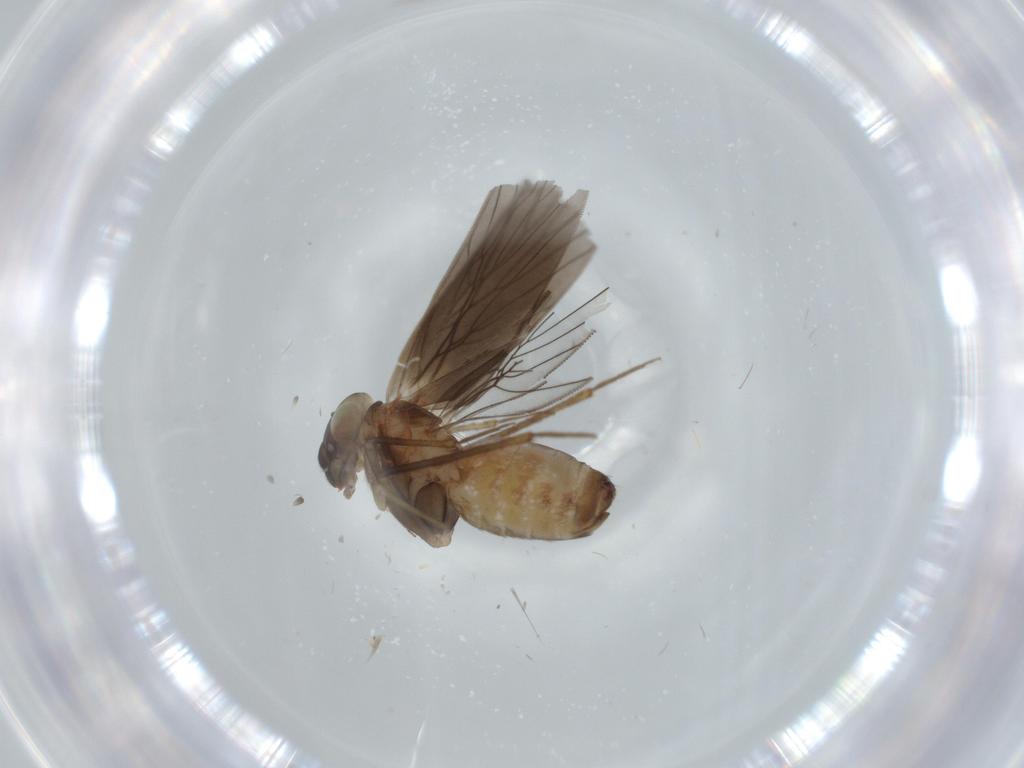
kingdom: Animalia
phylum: Arthropoda
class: Insecta
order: Psocodea
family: Lepidopsocidae
